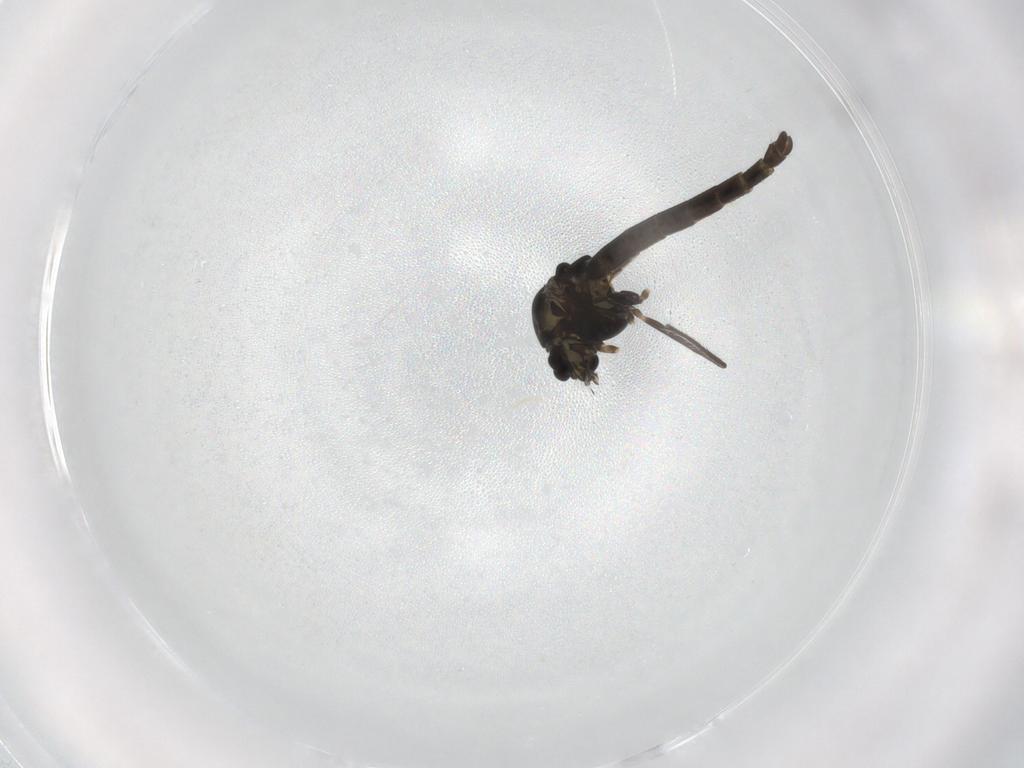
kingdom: Animalia
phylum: Arthropoda
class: Insecta
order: Diptera
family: Chironomidae
